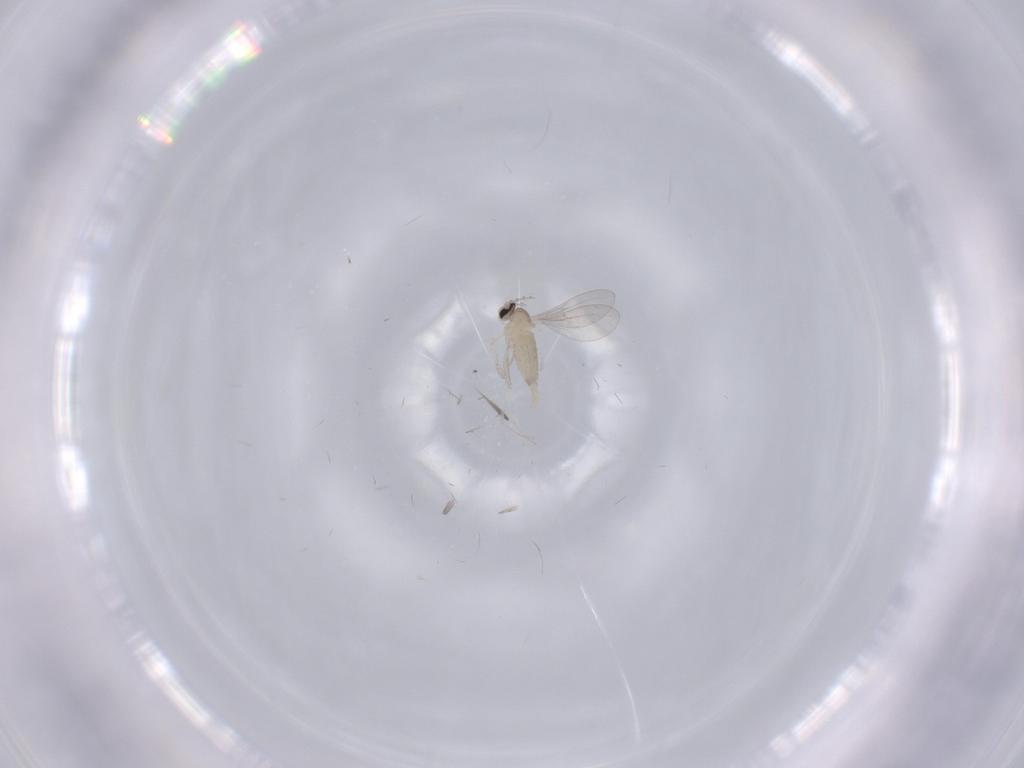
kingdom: Animalia
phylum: Arthropoda
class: Insecta
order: Diptera
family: Cecidomyiidae
